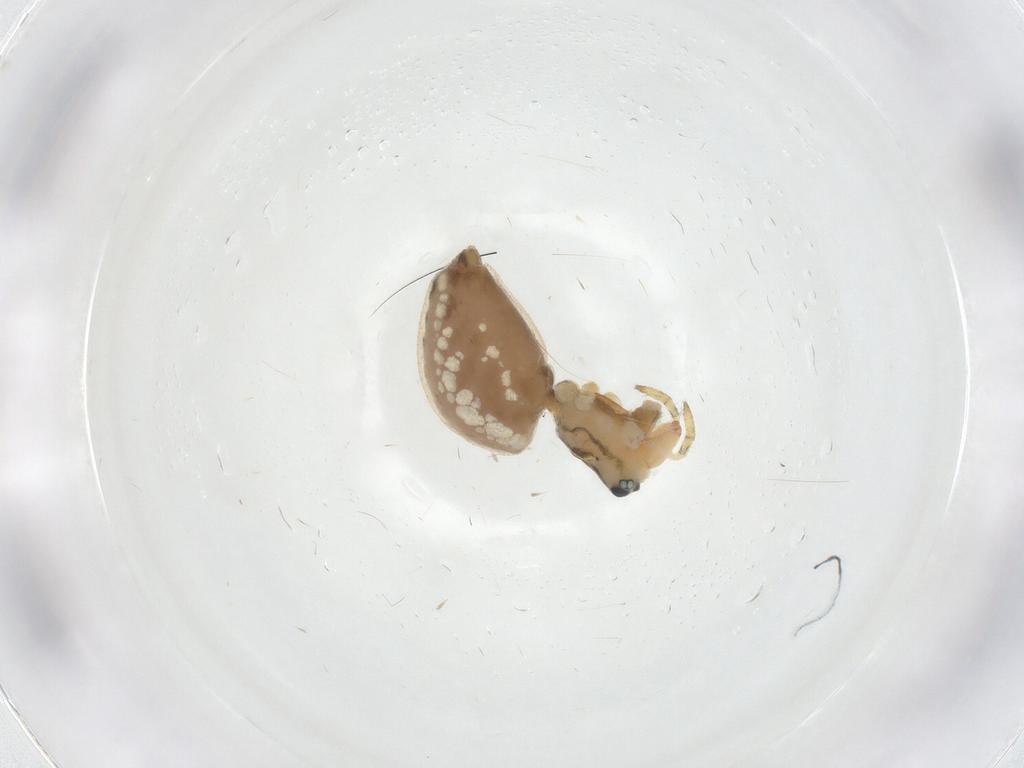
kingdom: Animalia
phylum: Arthropoda
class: Arachnida
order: Araneae
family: Linyphiidae
